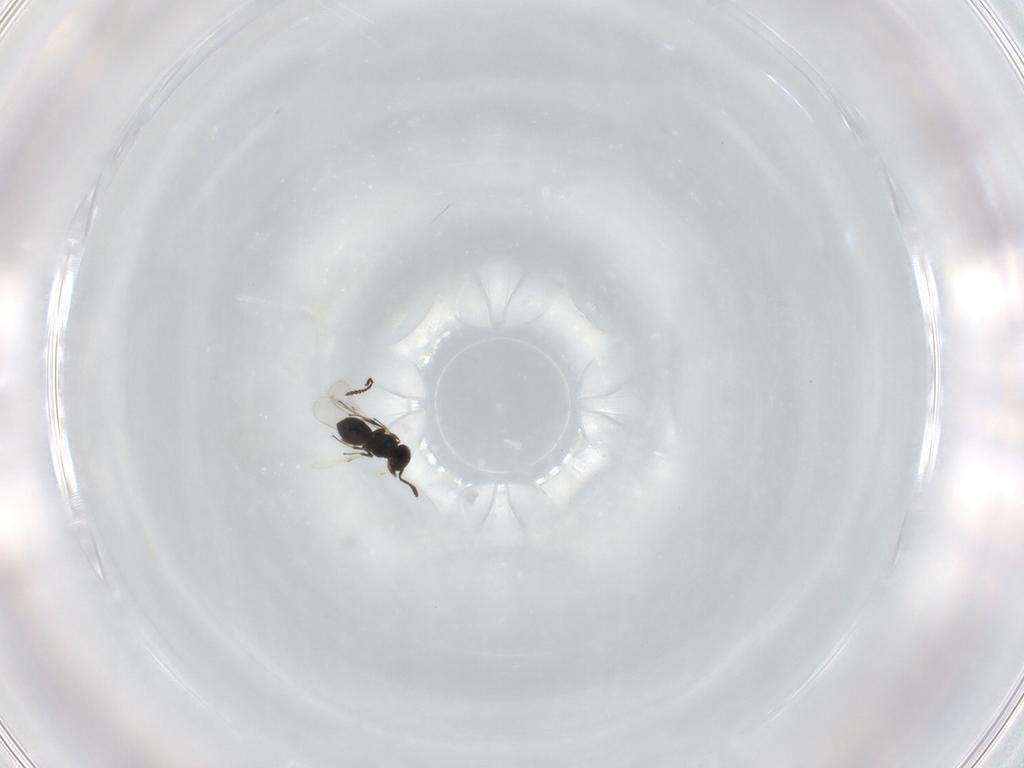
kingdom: Animalia
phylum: Arthropoda
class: Insecta
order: Hymenoptera
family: Scelionidae
